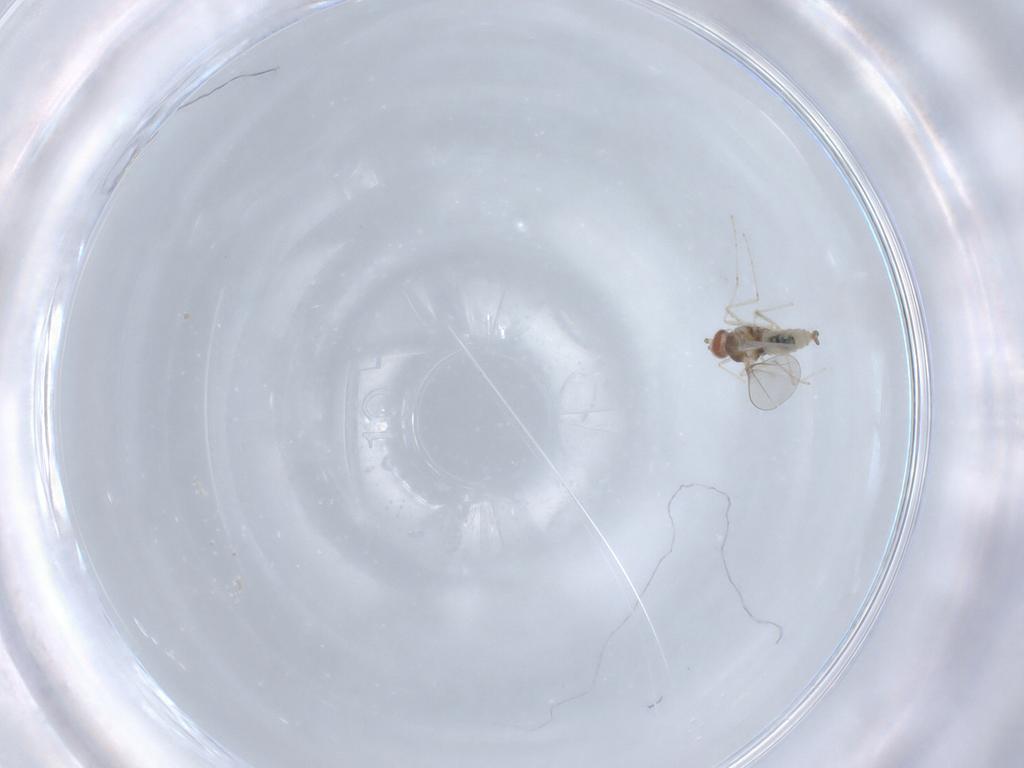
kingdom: Animalia
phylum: Arthropoda
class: Insecta
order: Diptera
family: Cecidomyiidae
